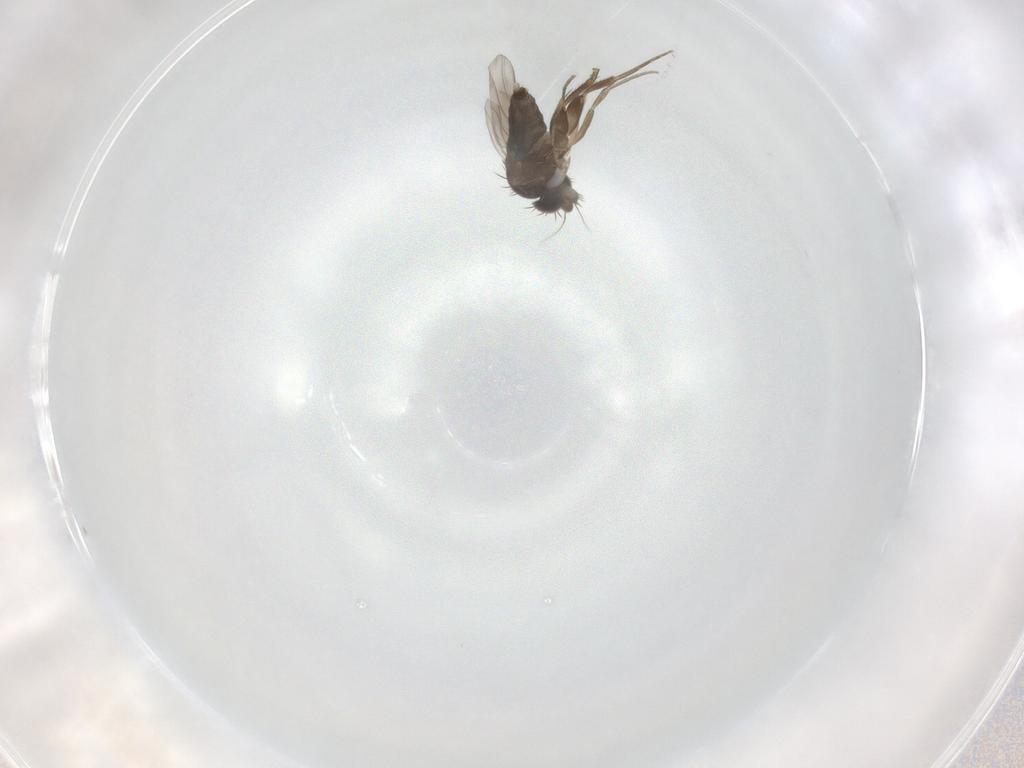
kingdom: Animalia
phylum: Arthropoda
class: Insecta
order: Diptera
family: Phoridae
